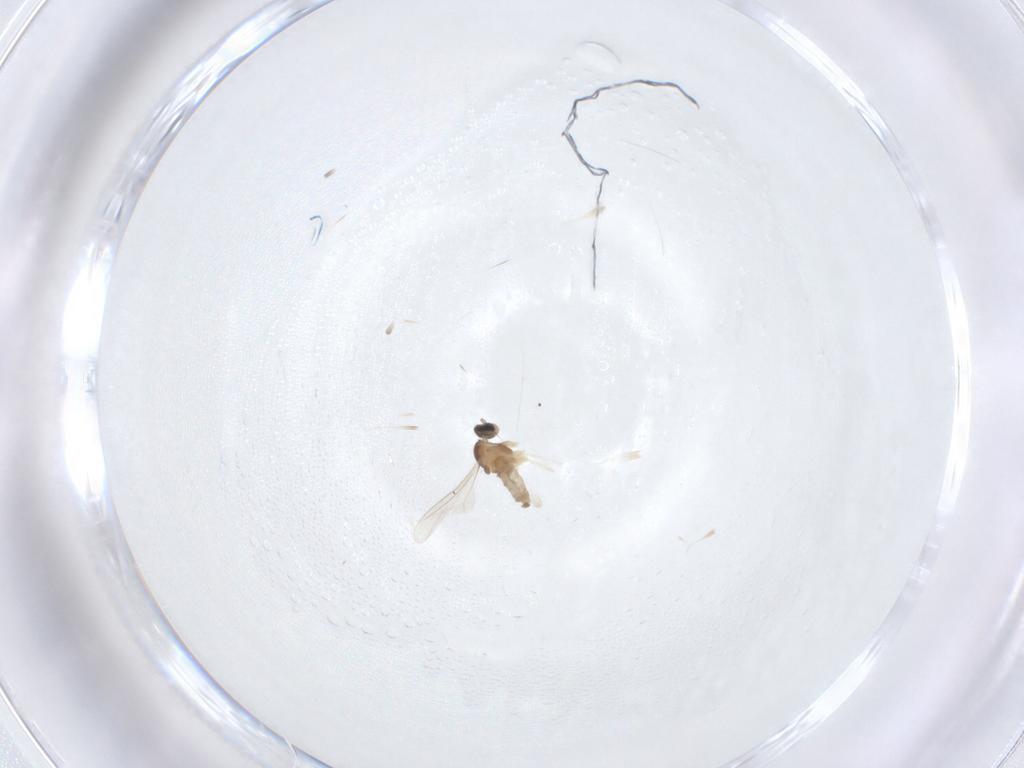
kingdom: Animalia
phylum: Arthropoda
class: Insecta
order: Diptera
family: Cecidomyiidae
